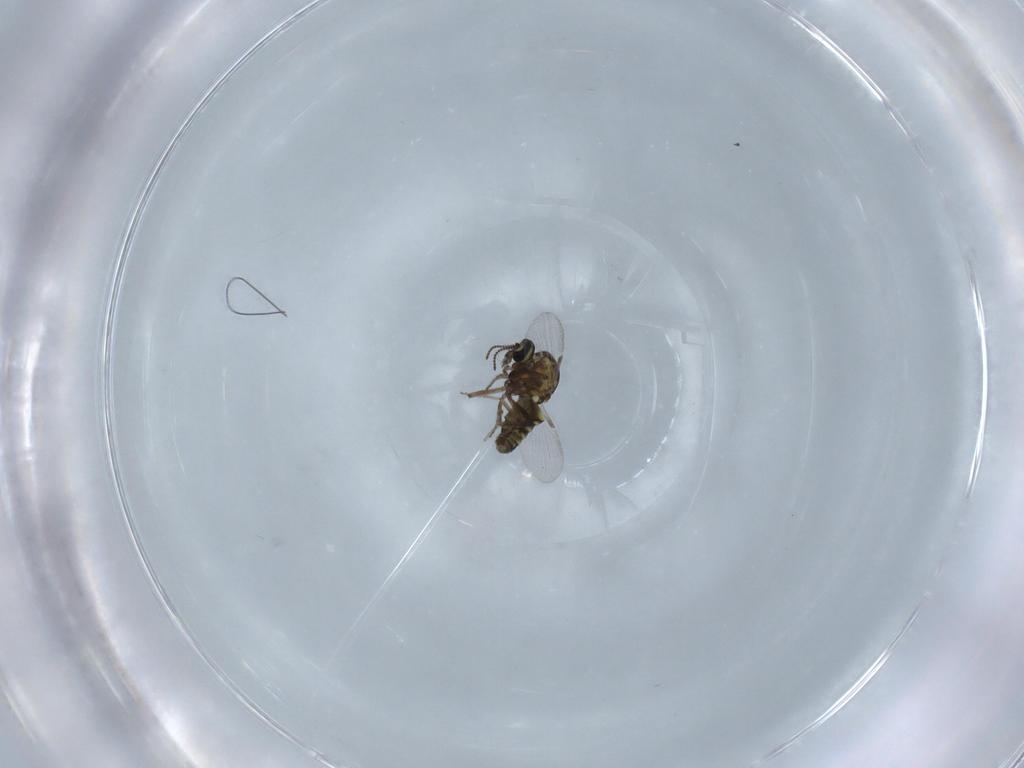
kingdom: Animalia
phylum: Arthropoda
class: Insecta
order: Diptera
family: Ceratopogonidae
